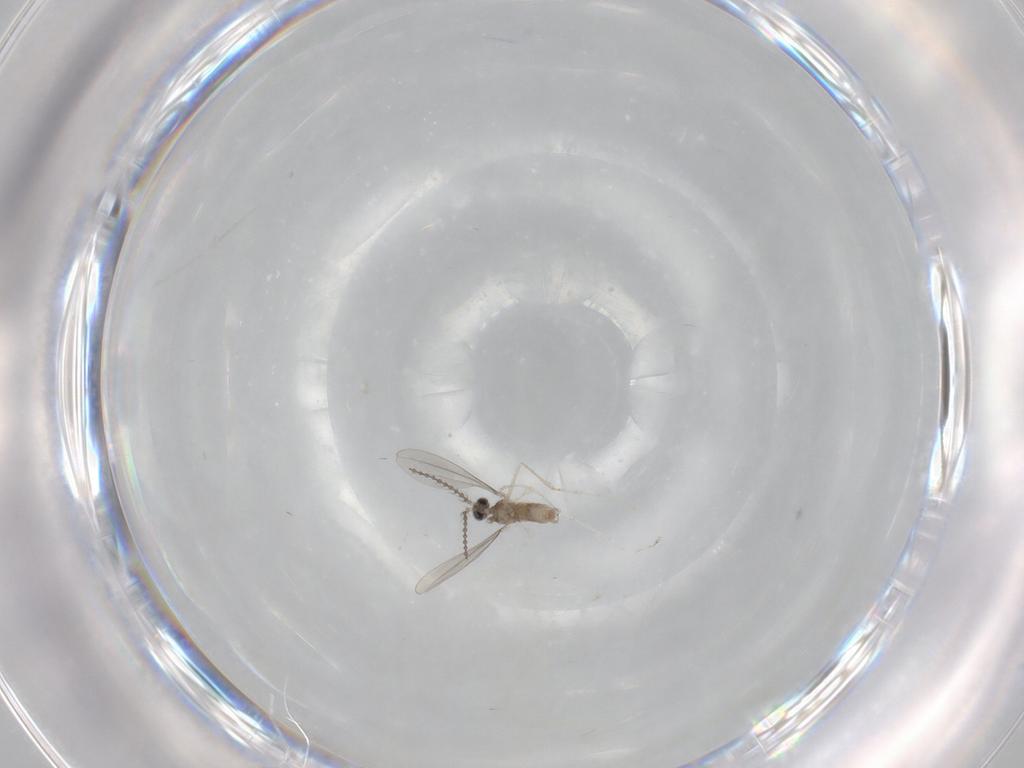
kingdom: Animalia
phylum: Arthropoda
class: Insecta
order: Diptera
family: Cecidomyiidae
